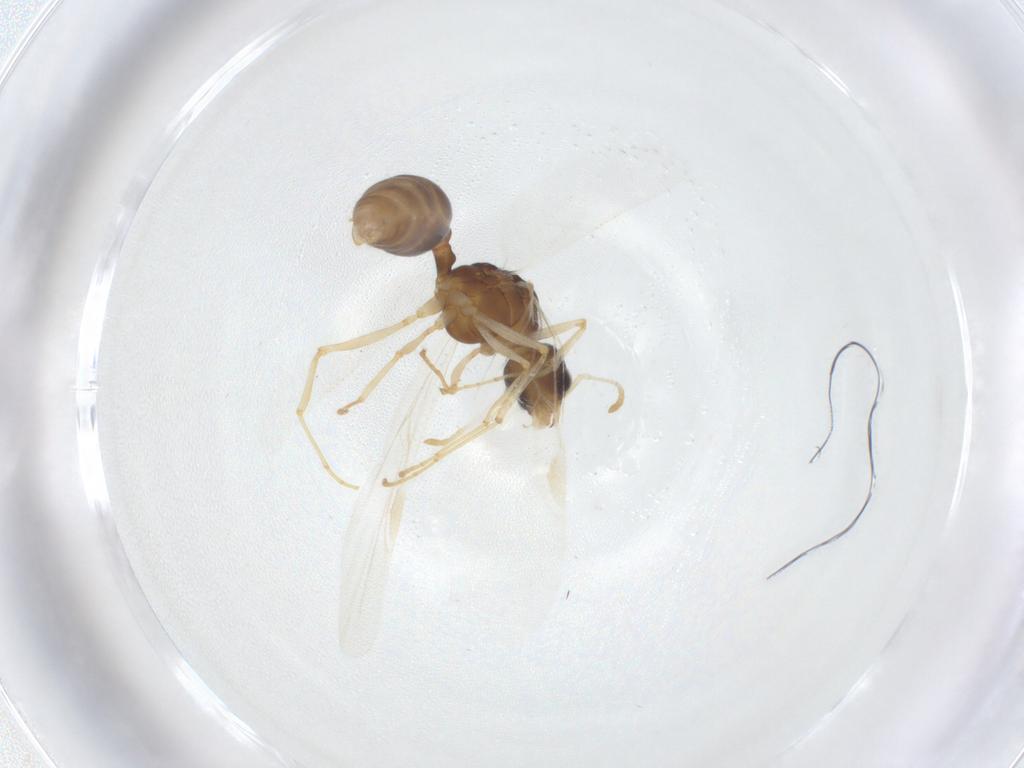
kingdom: Animalia
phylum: Arthropoda
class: Insecta
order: Hymenoptera
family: Formicidae
